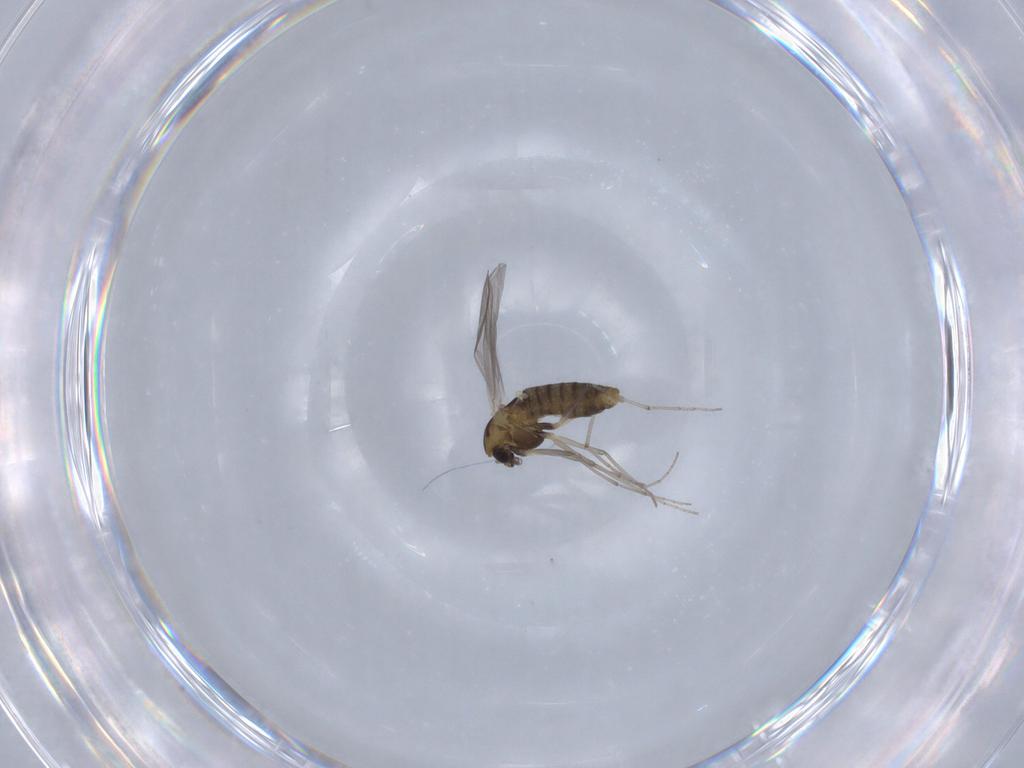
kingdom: Animalia
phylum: Arthropoda
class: Insecta
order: Diptera
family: Chironomidae
